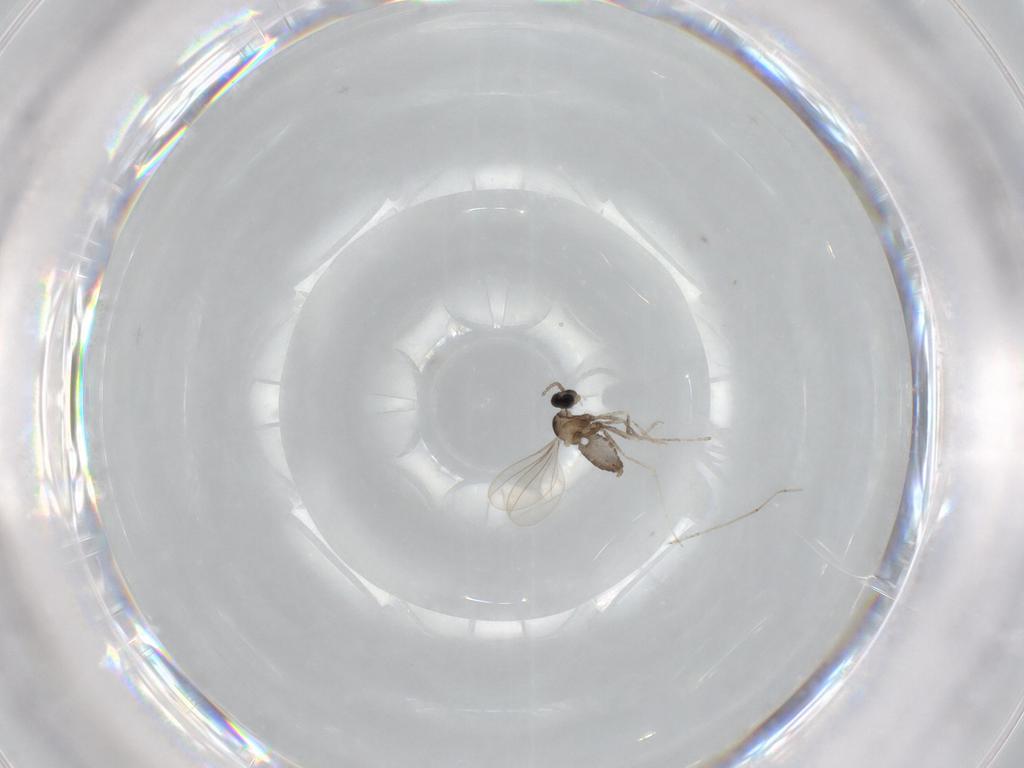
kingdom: Animalia
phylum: Arthropoda
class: Insecta
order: Diptera
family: Cecidomyiidae
